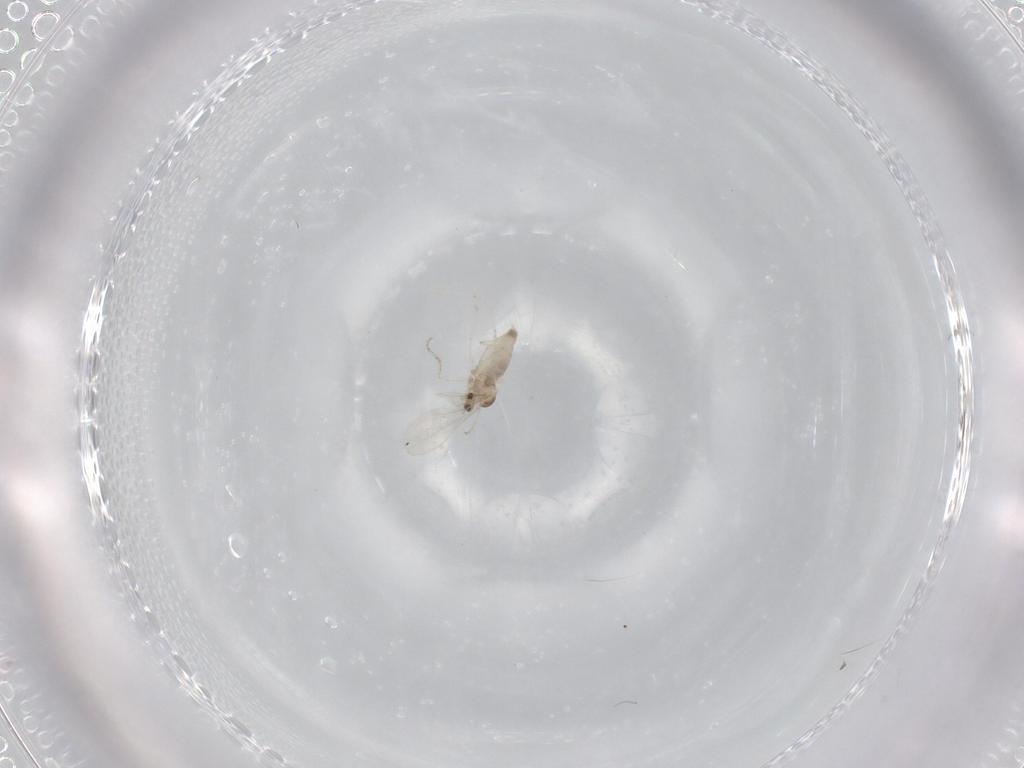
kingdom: Animalia
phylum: Arthropoda
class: Insecta
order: Diptera
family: Cecidomyiidae
